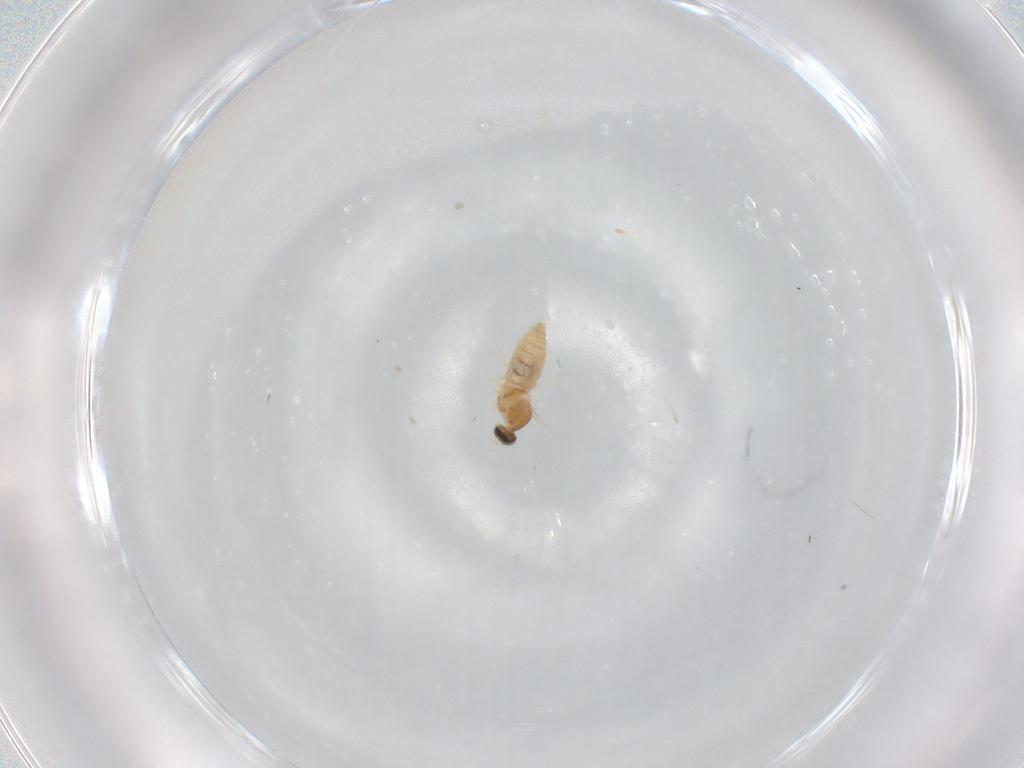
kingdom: Animalia
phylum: Arthropoda
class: Insecta
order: Diptera
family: Cecidomyiidae
